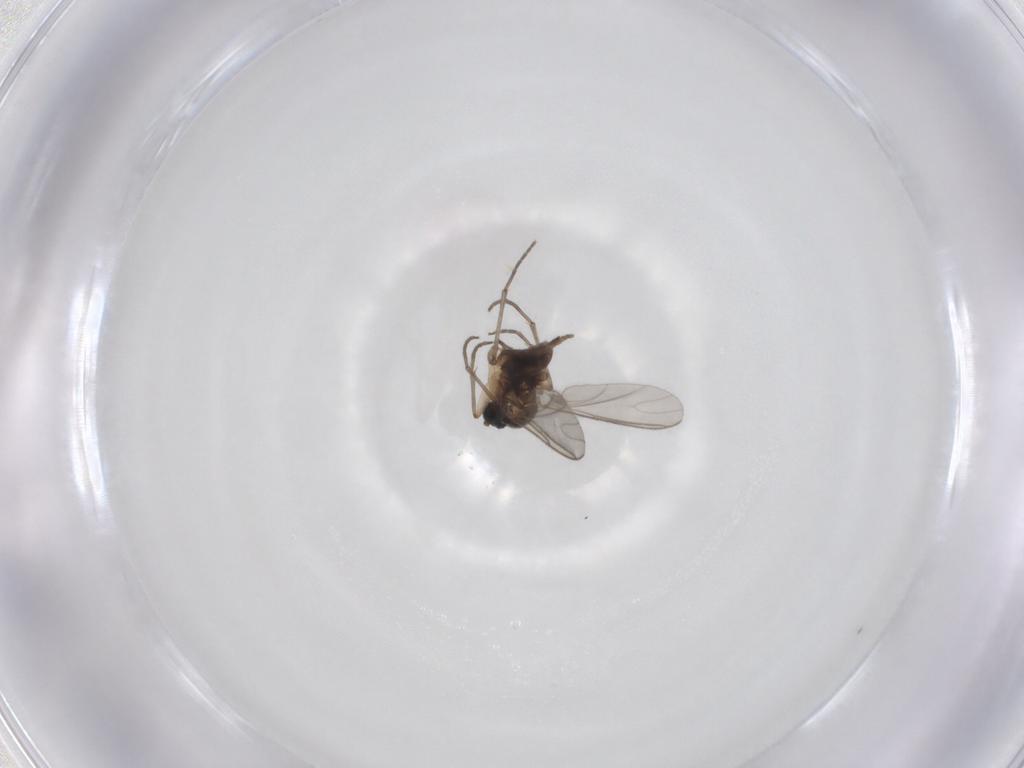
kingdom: Animalia
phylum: Arthropoda
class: Insecta
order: Diptera
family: Sciaridae
